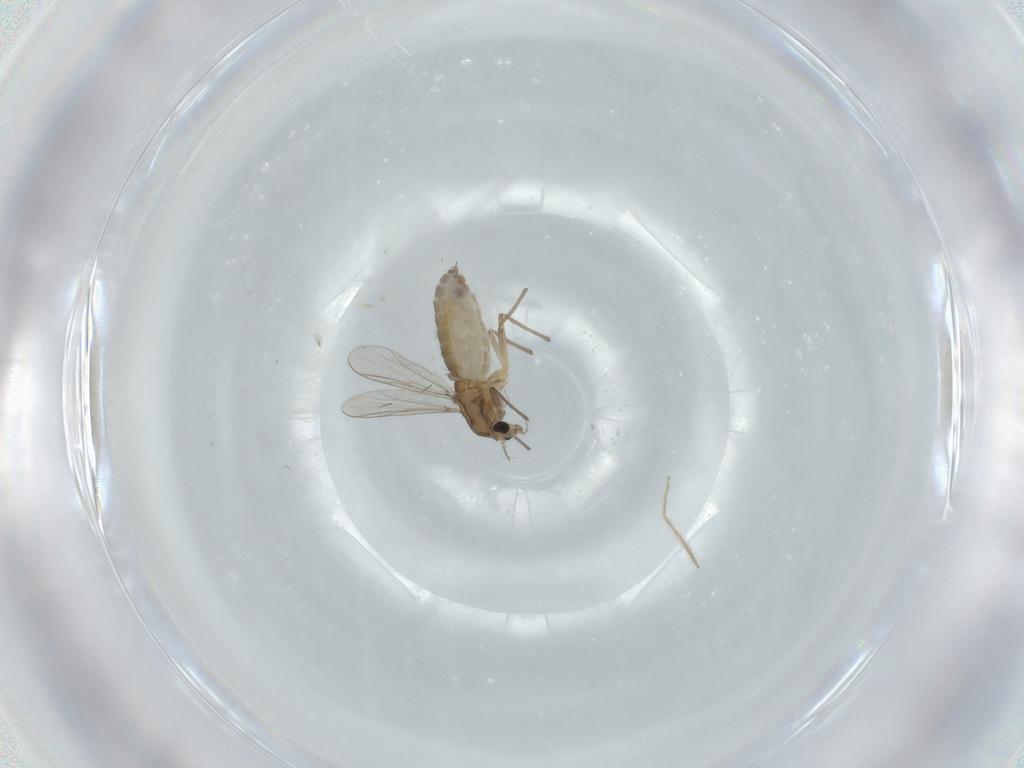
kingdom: Animalia
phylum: Arthropoda
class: Insecta
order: Diptera
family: Chironomidae
